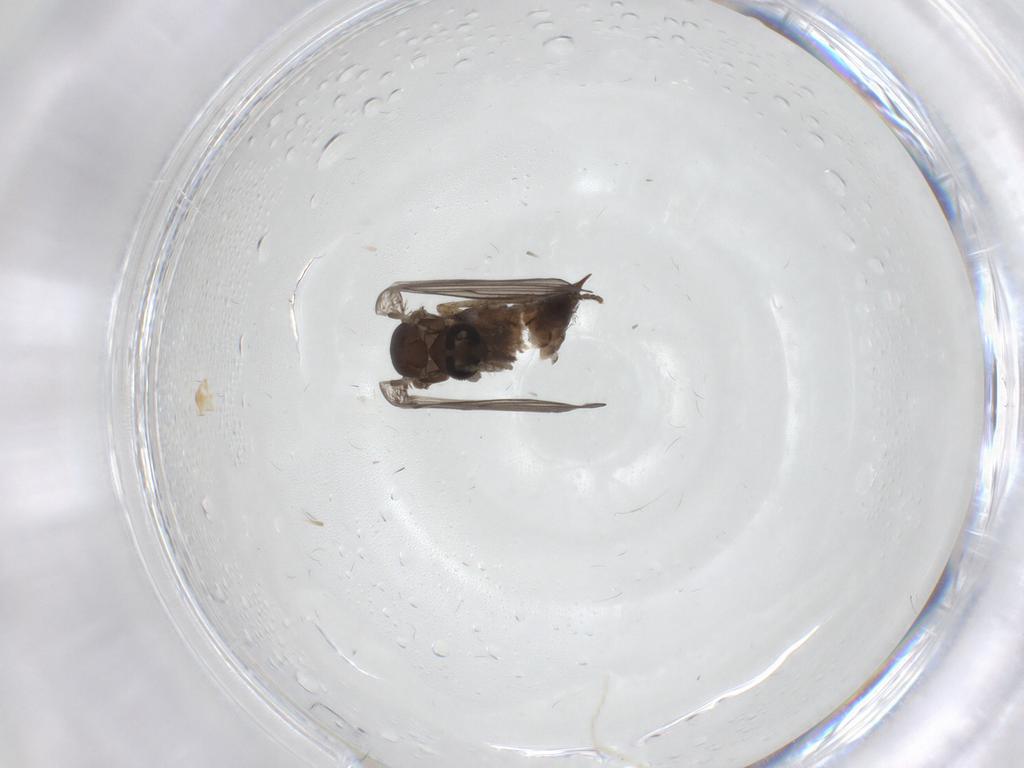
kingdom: Animalia
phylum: Arthropoda
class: Insecta
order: Diptera
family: Psychodidae
